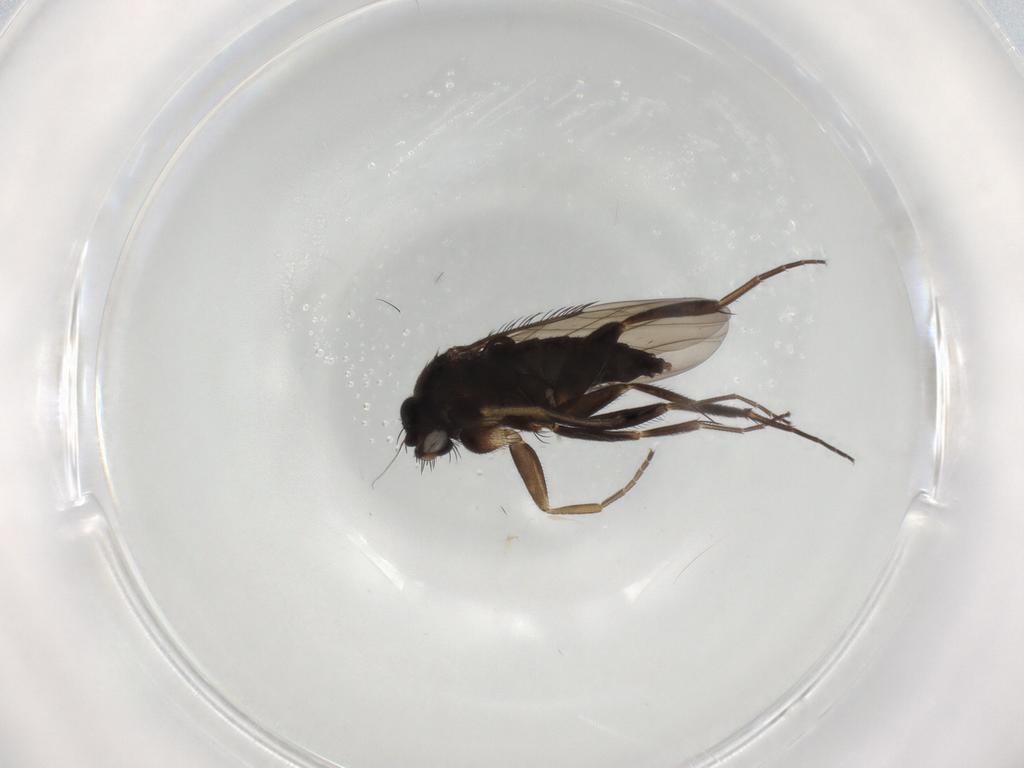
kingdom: Animalia
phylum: Arthropoda
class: Insecta
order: Diptera
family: Phoridae
